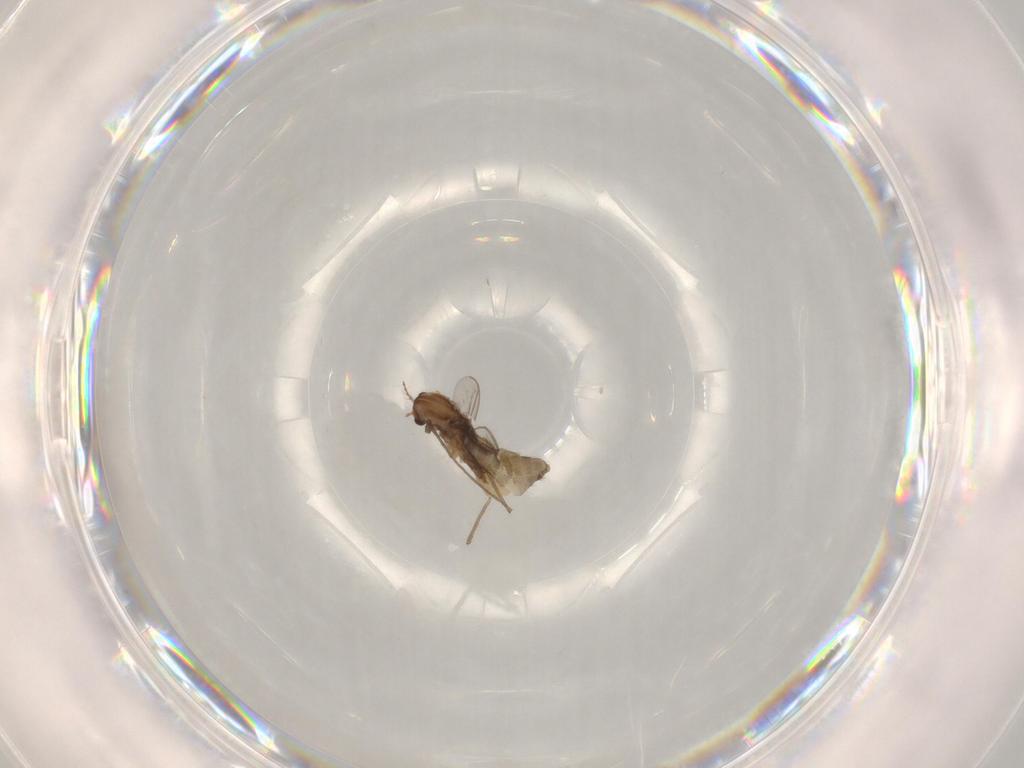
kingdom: Animalia
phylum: Arthropoda
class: Insecta
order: Diptera
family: Chironomidae
